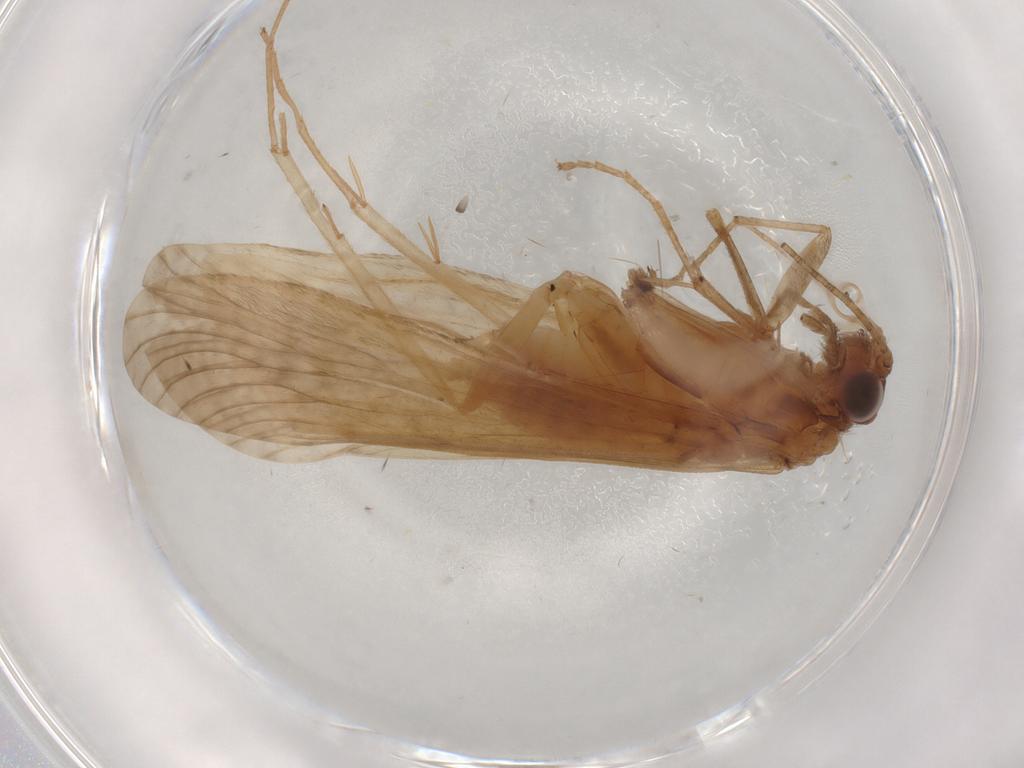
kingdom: Animalia
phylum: Arthropoda
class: Insecta
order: Trichoptera
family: Hydropsychidae
